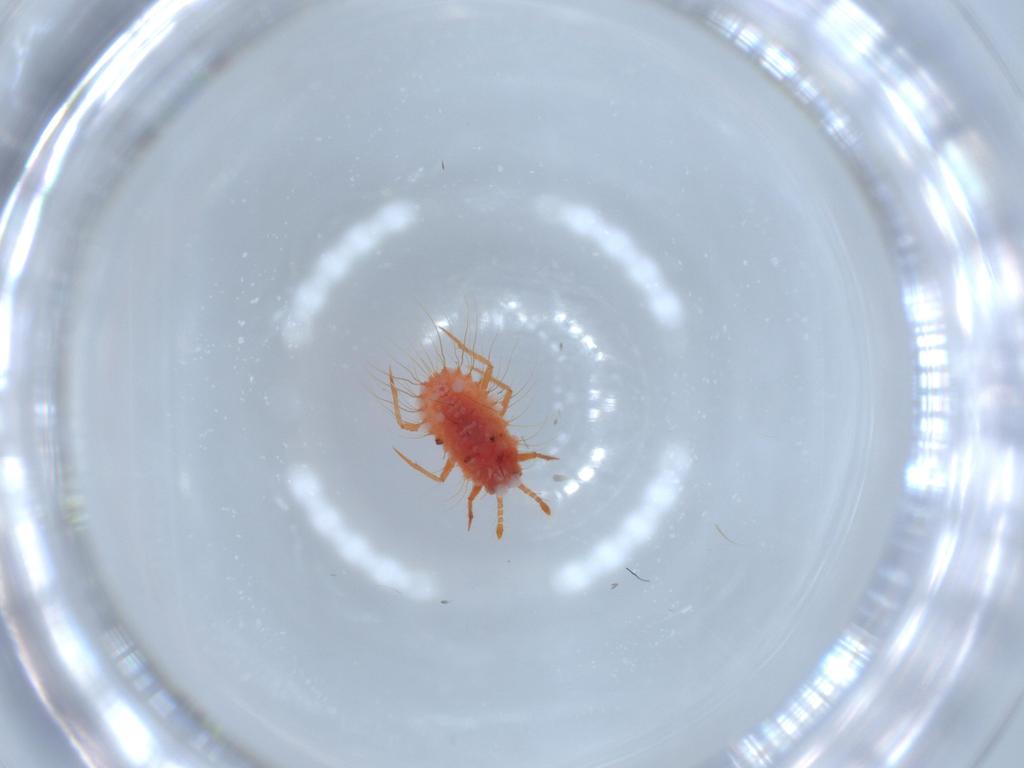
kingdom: Animalia
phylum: Arthropoda
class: Insecta
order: Hemiptera
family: Monophlebidae
